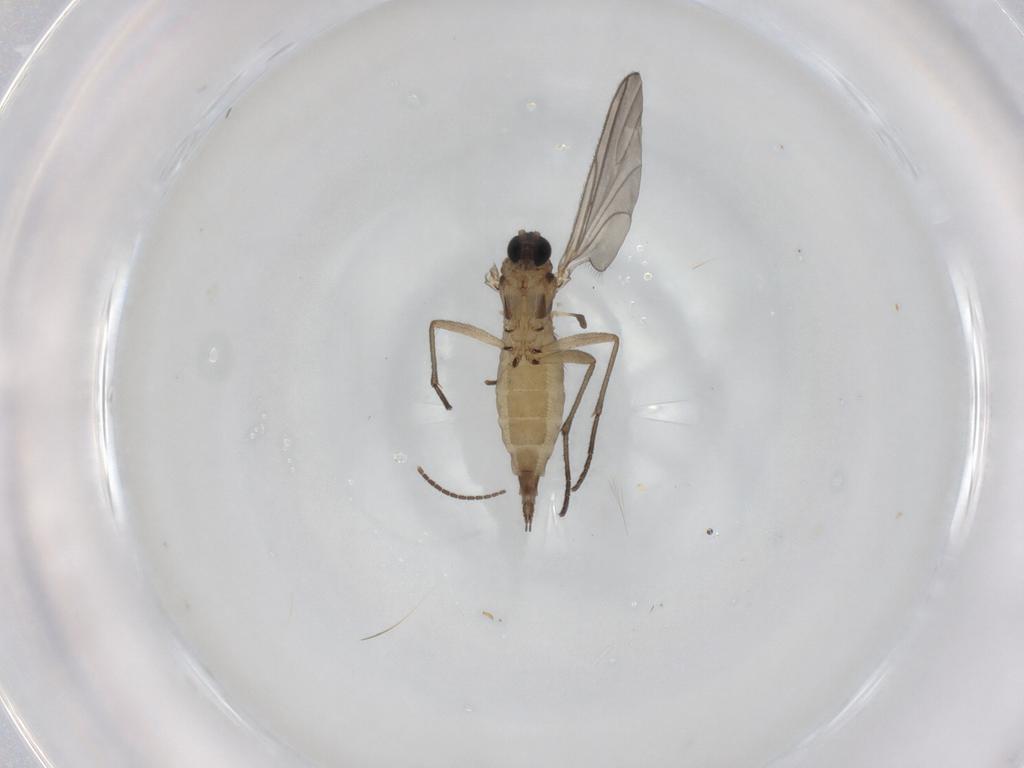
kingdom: Animalia
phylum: Arthropoda
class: Insecta
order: Diptera
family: Sciaridae
